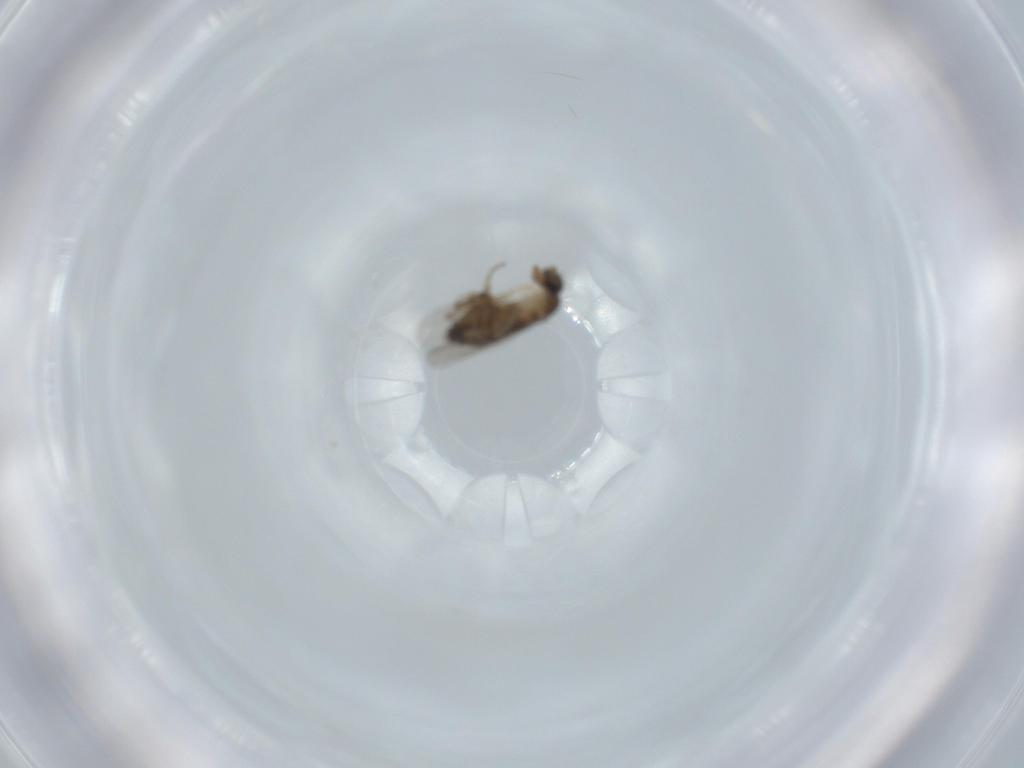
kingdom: Animalia
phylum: Arthropoda
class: Insecta
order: Diptera
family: Phoridae
